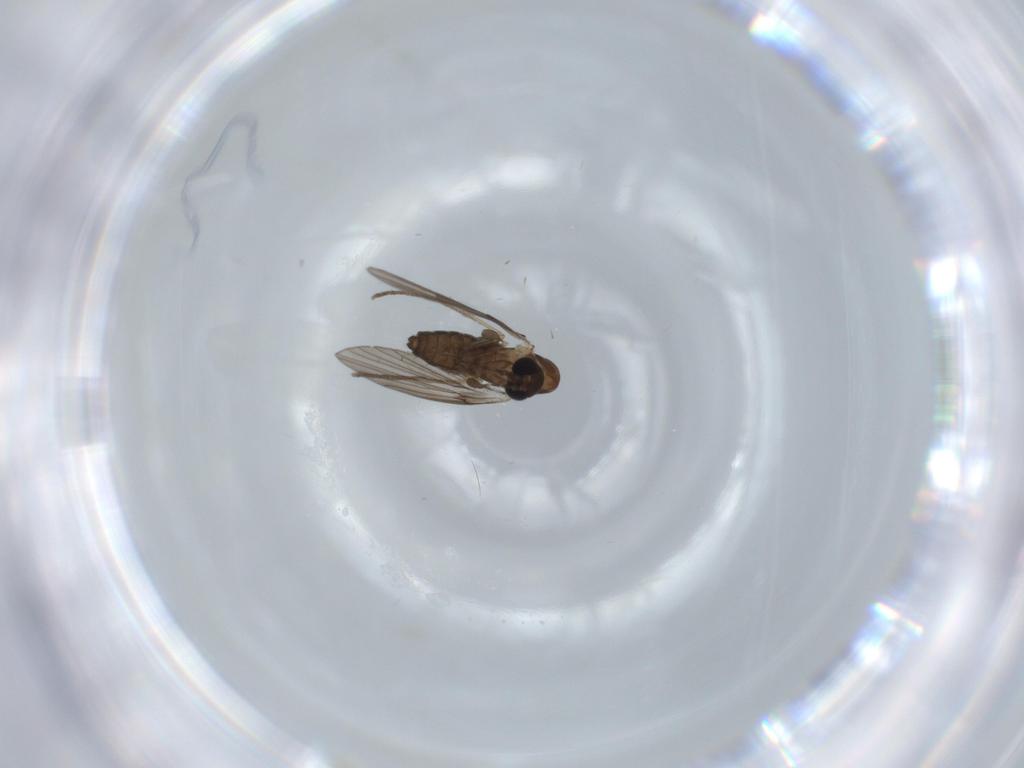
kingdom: Animalia
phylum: Arthropoda
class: Insecta
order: Diptera
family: Psychodidae
